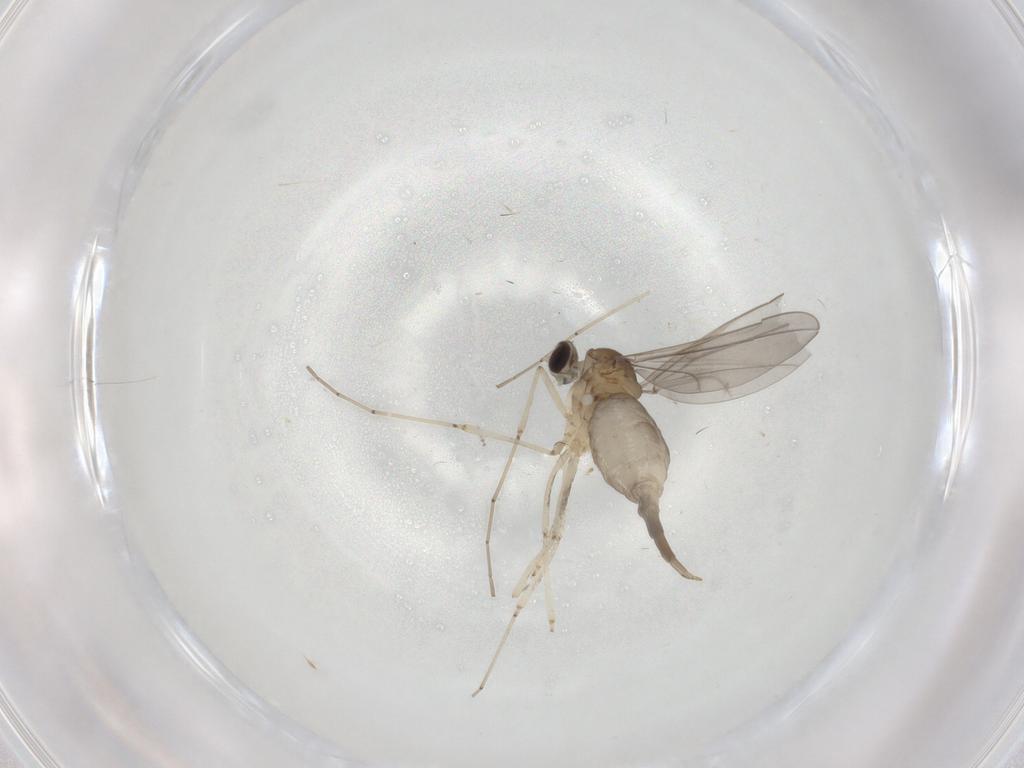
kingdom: Animalia
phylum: Arthropoda
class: Insecta
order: Diptera
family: Cecidomyiidae
